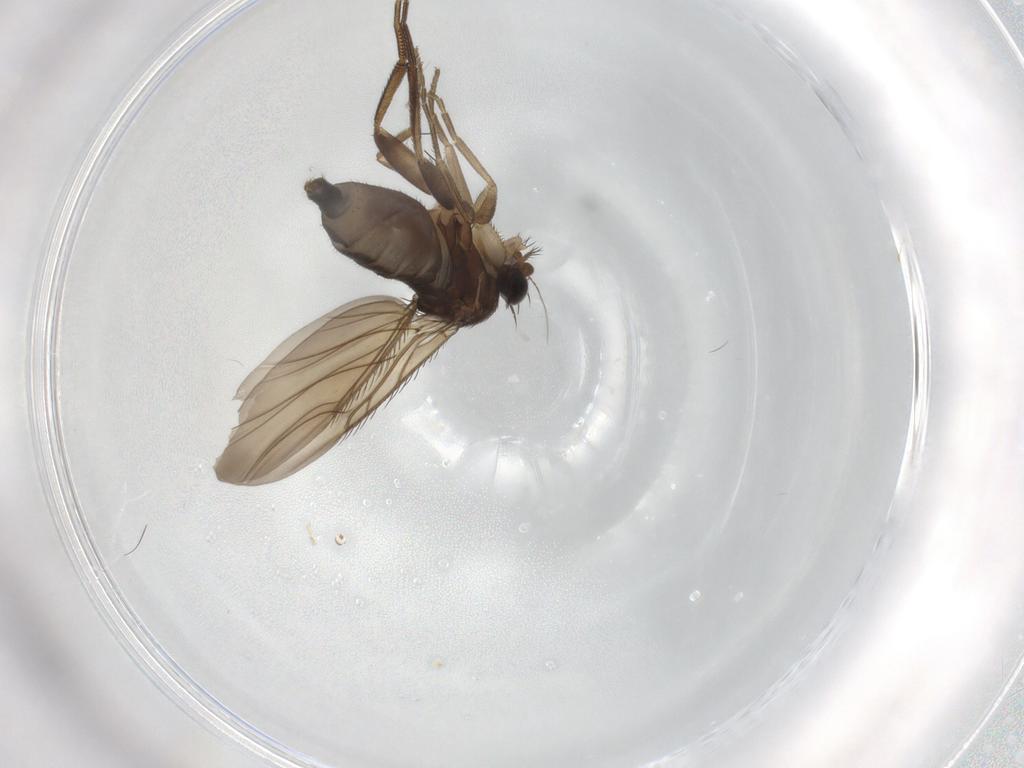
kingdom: Animalia
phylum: Arthropoda
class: Insecta
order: Diptera
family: Phoridae
